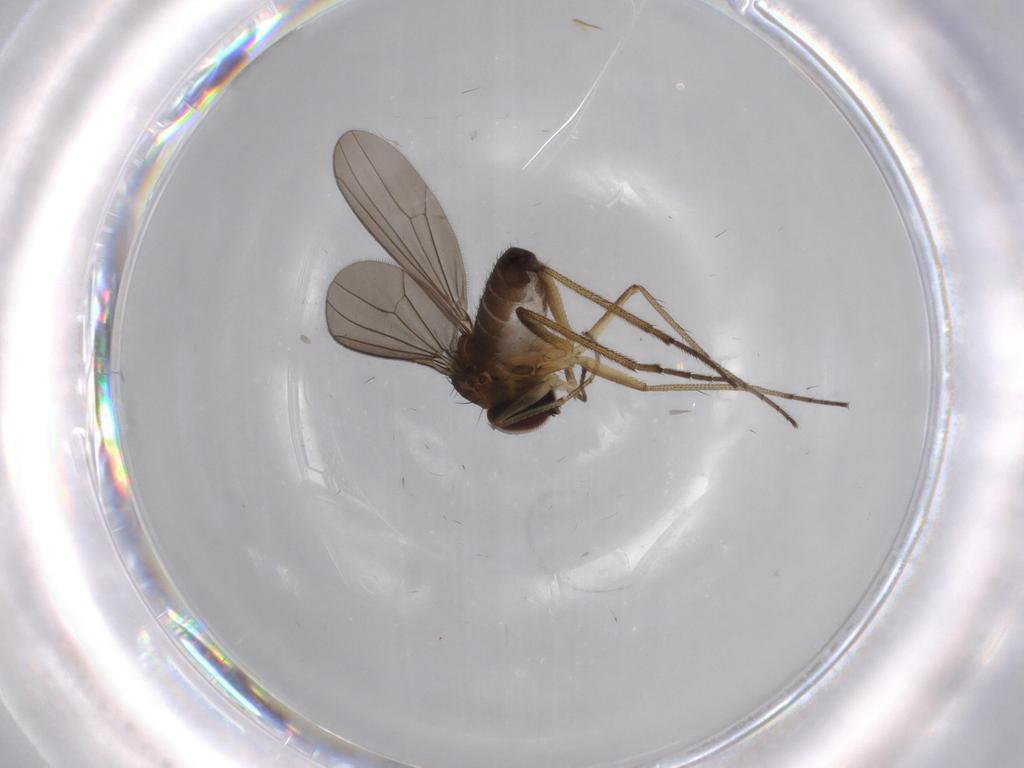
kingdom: Animalia
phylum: Arthropoda
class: Insecta
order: Diptera
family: Dolichopodidae
